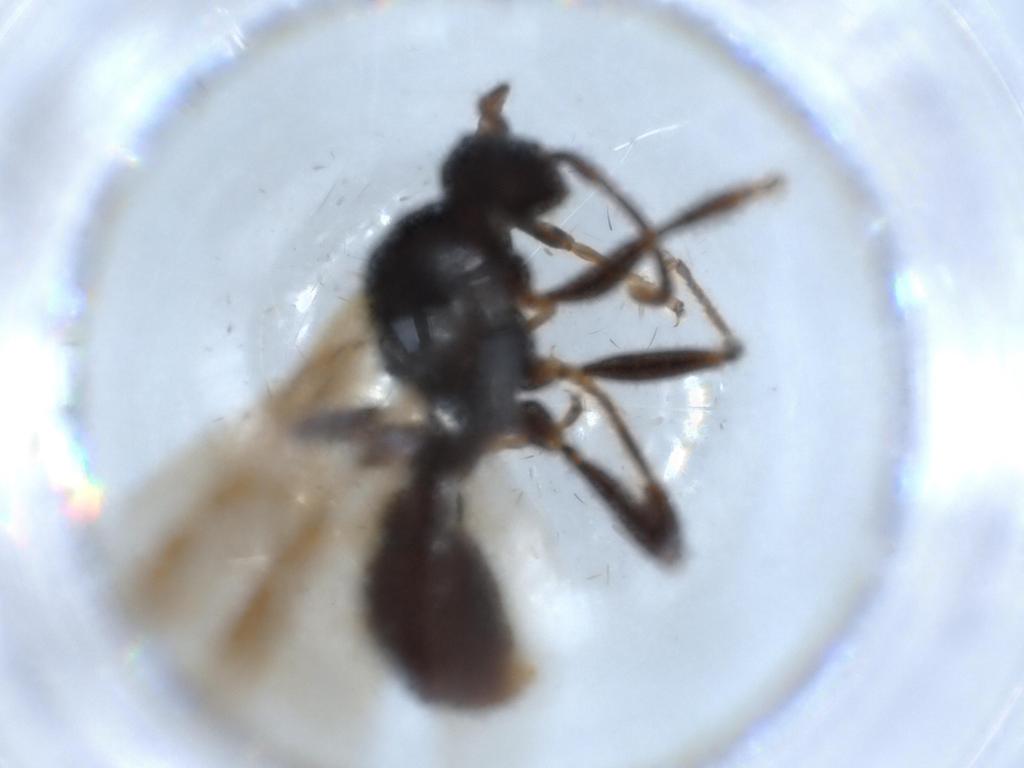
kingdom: Animalia
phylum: Arthropoda
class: Insecta
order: Hymenoptera
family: Formicidae
